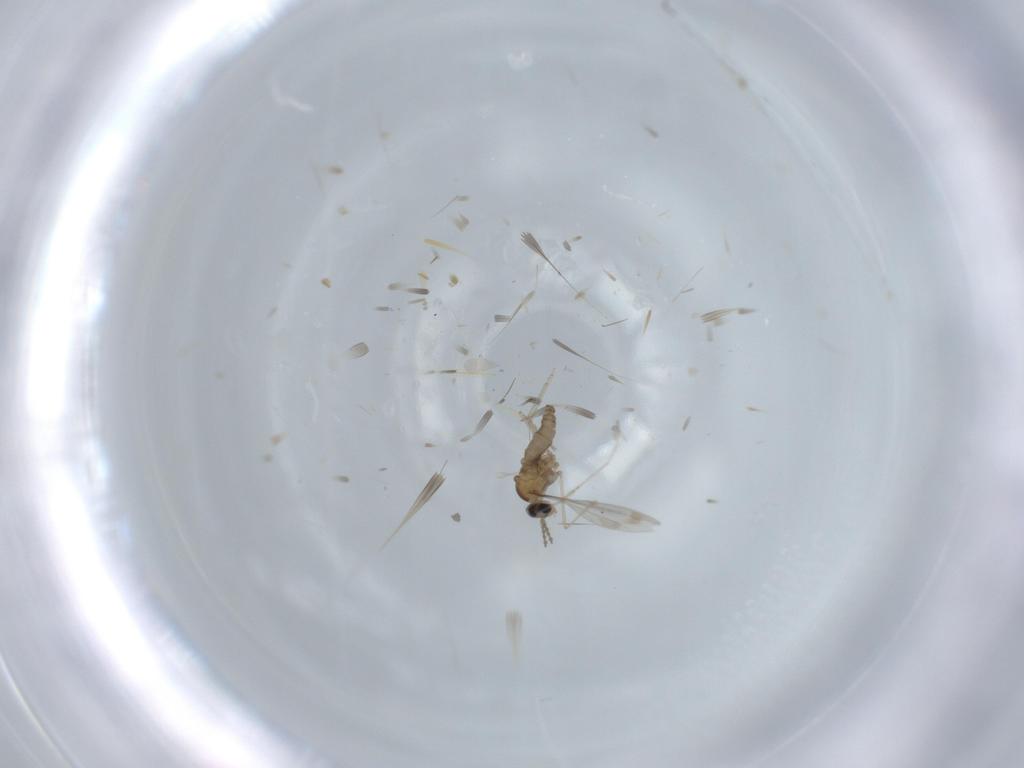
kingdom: Animalia
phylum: Arthropoda
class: Insecta
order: Diptera
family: Cecidomyiidae
